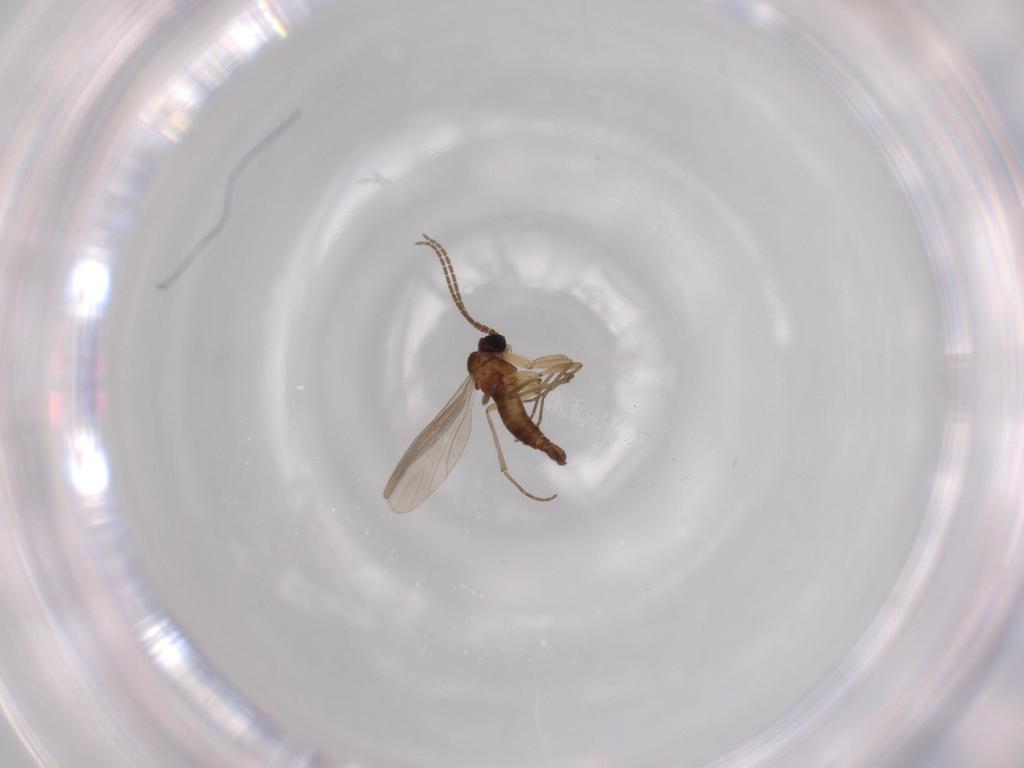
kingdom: Animalia
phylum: Arthropoda
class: Insecta
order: Diptera
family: Sciaridae
